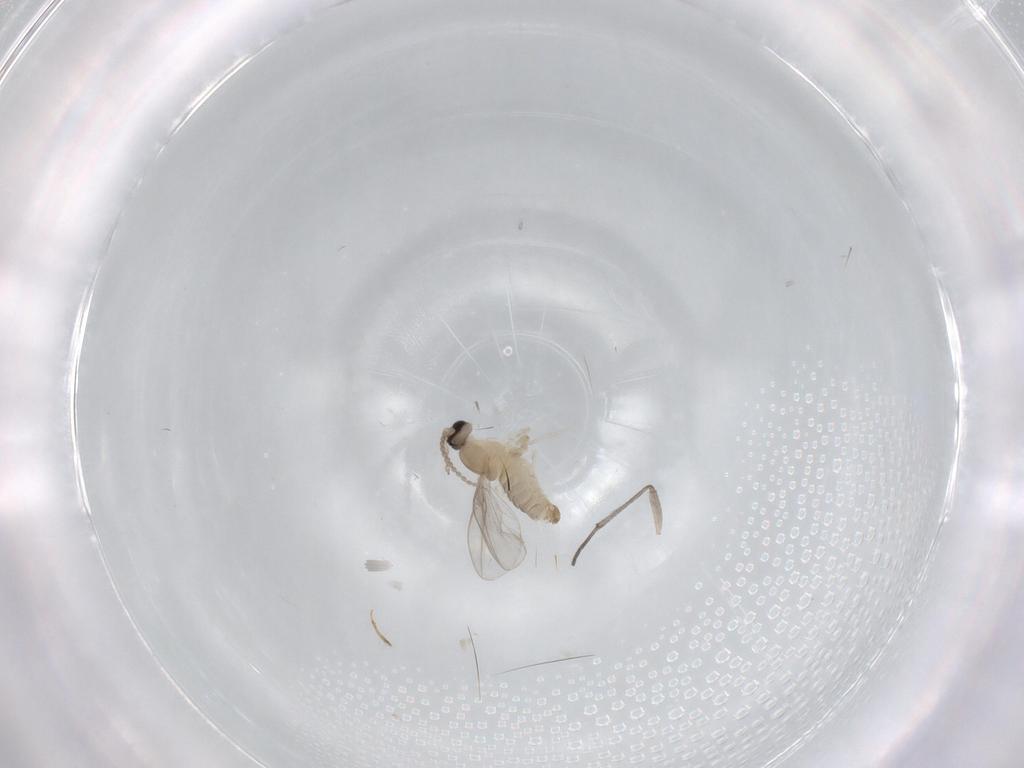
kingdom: Animalia
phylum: Arthropoda
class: Insecta
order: Diptera
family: Cecidomyiidae
